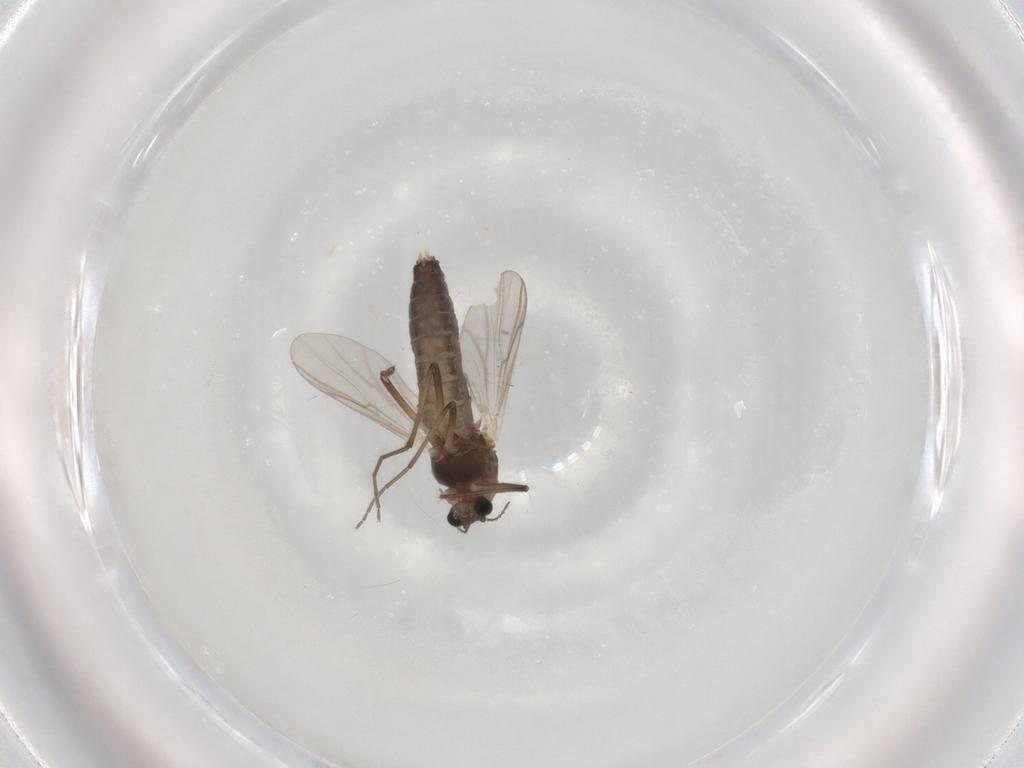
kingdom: Animalia
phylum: Arthropoda
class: Insecta
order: Diptera
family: Chironomidae
